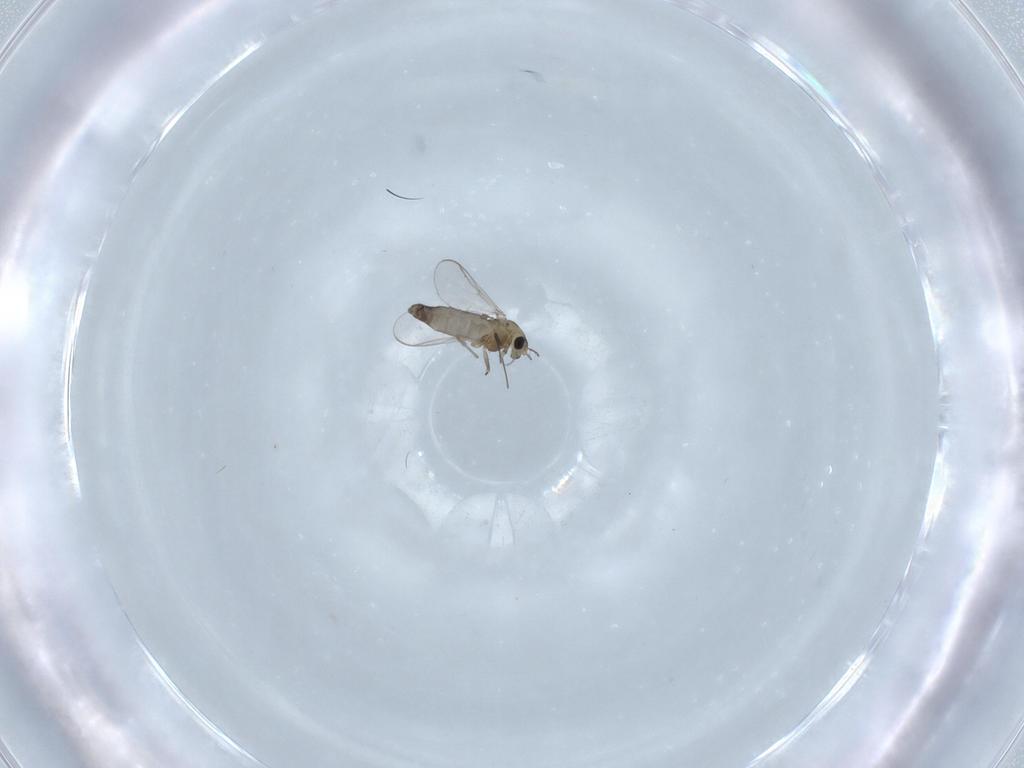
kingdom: Animalia
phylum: Arthropoda
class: Insecta
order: Diptera
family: Chironomidae
